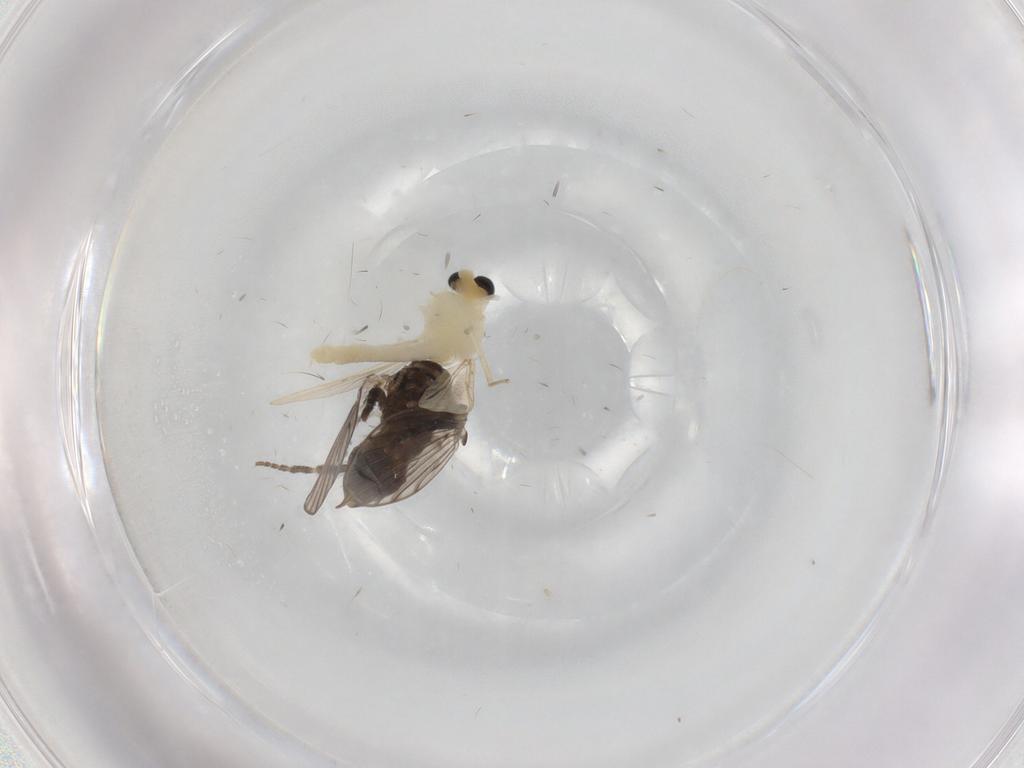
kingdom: Animalia
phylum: Arthropoda
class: Insecta
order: Diptera
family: Chironomidae
